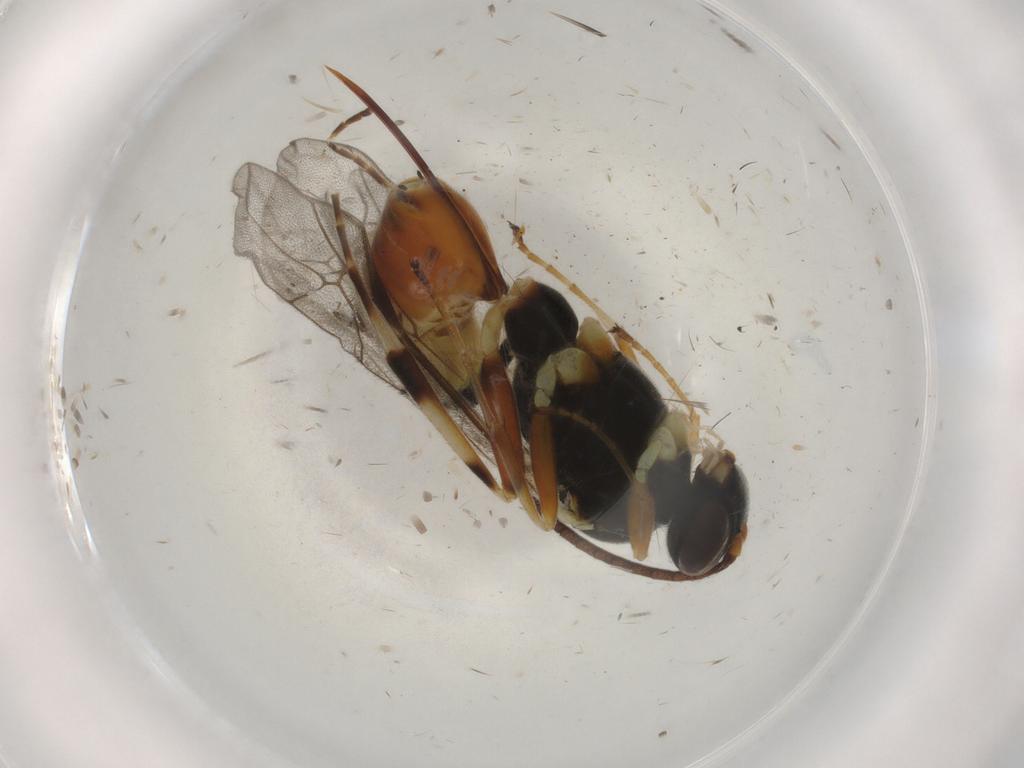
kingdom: Animalia
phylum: Arthropoda
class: Insecta
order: Hymenoptera
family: Ichneumonidae
